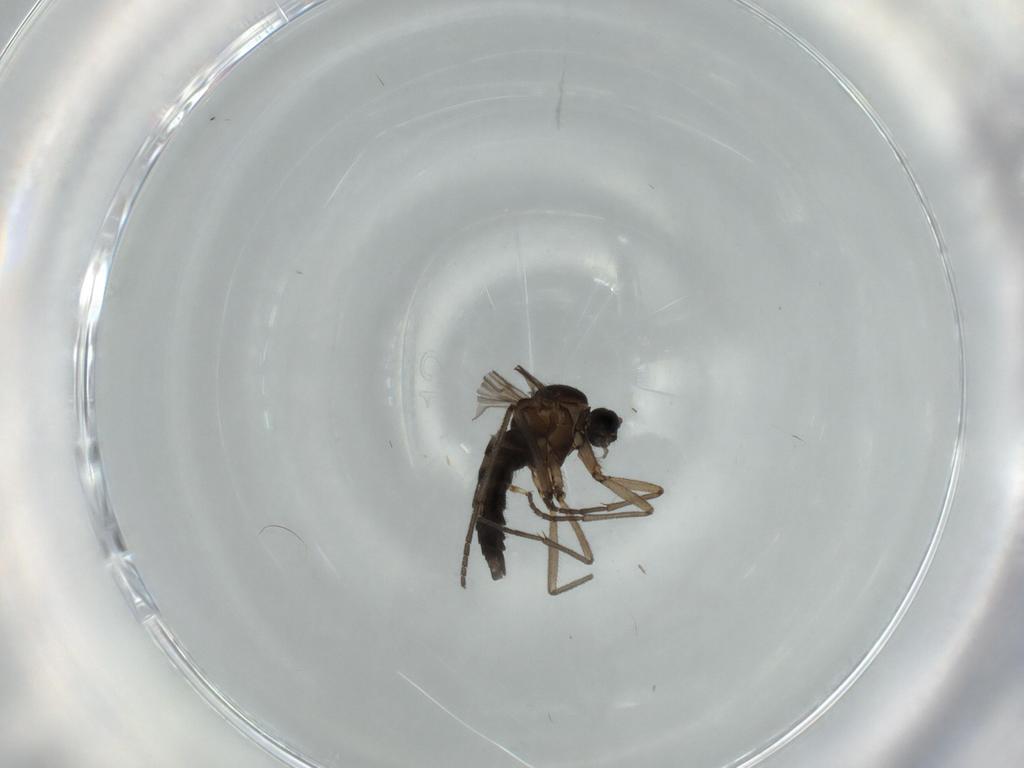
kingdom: Animalia
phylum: Arthropoda
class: Insecta
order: Diptera
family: Sciaridae
